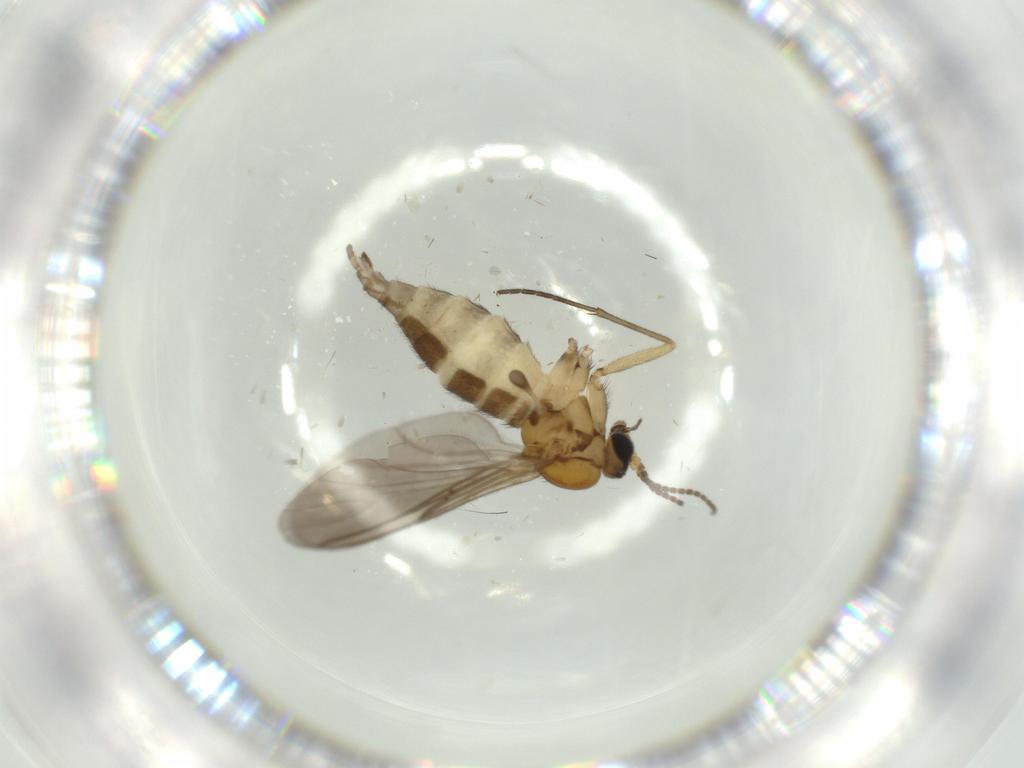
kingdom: Animalia
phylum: Arthropoda
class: Insecta
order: Diptera
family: Sciaridae
